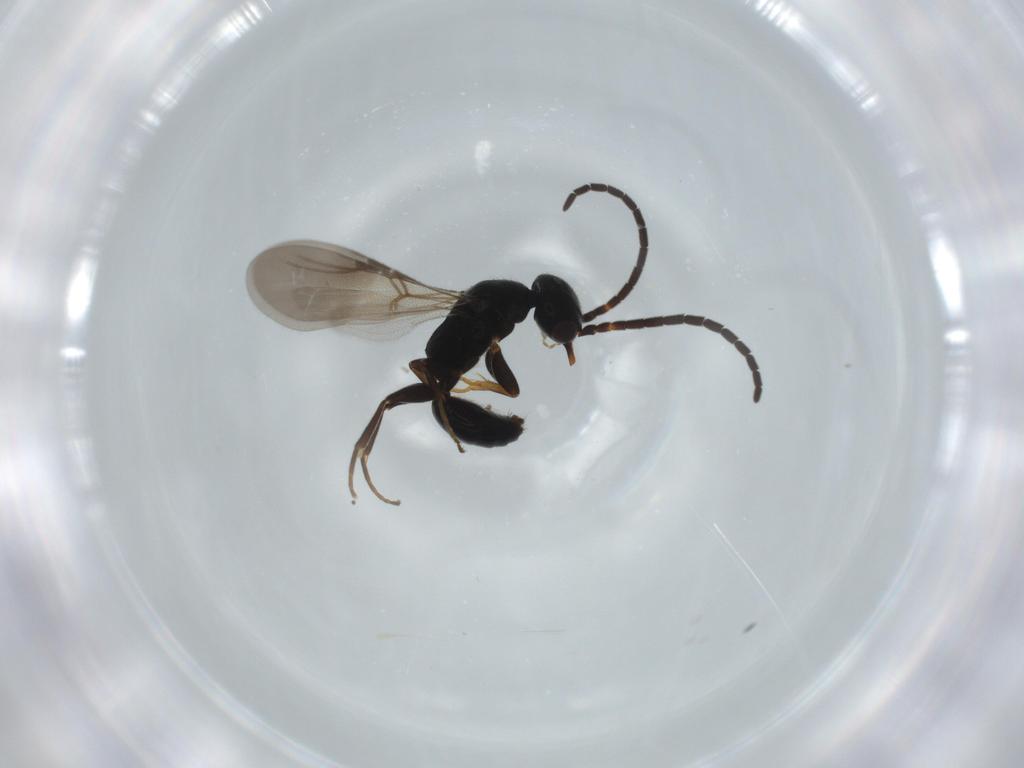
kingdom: Animalia
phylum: Arthropoda
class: Insecta
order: Hymenoptera
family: Bethylidae
